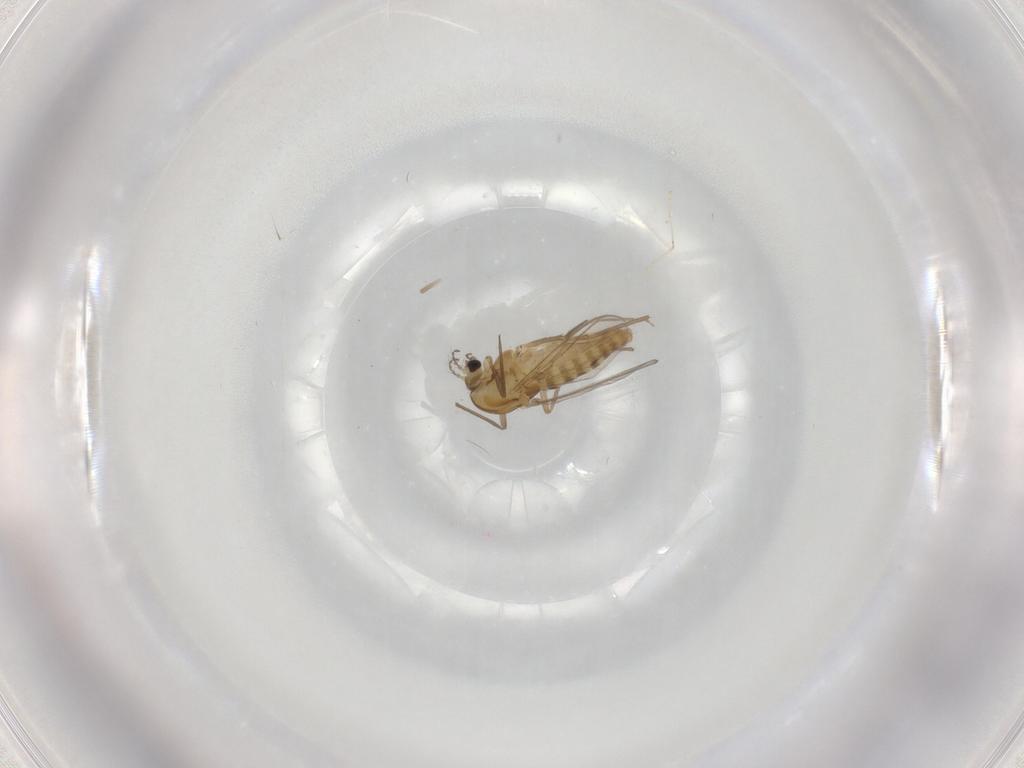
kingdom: Animalia
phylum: Arthropoda
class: Insecta
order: Diptera
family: Chironomidae
